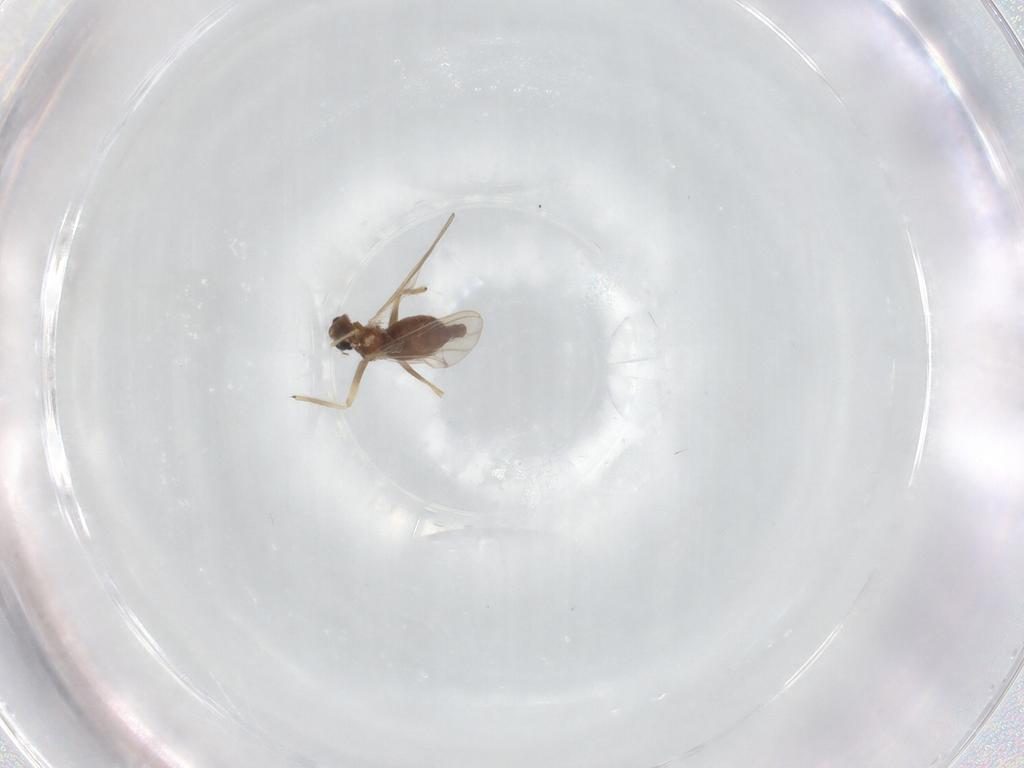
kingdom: Animalia
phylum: Arthropoda
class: Insecta
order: Diptera
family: Chironomidae
